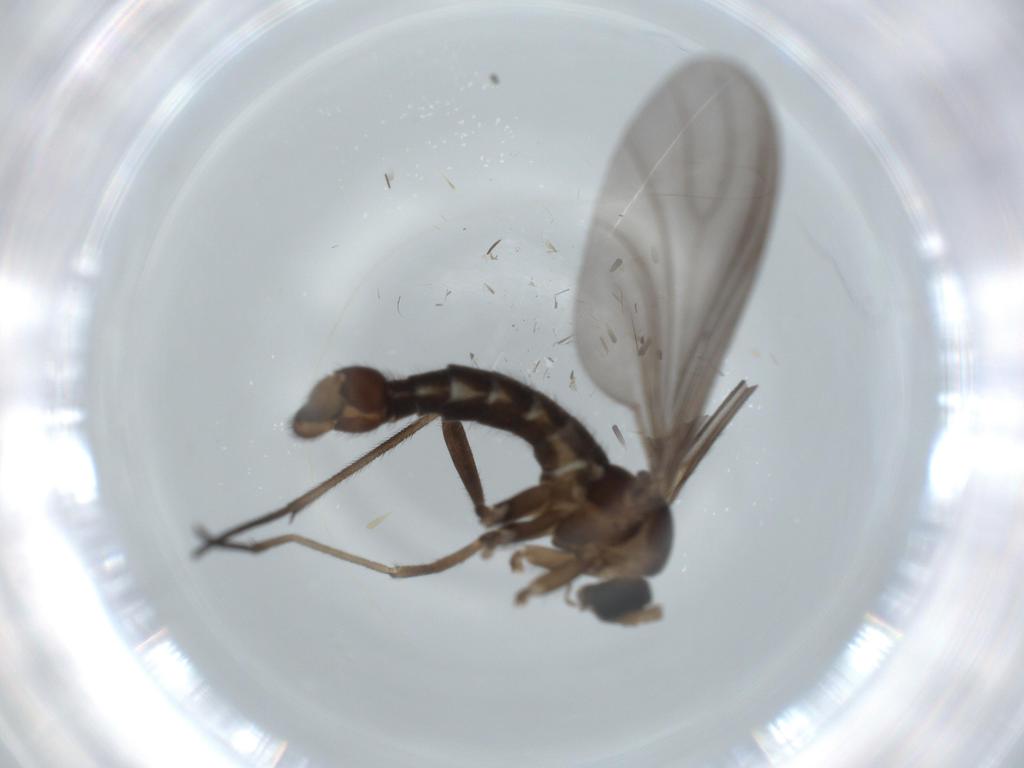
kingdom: Animalia
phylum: Arthropoda
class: Insecta
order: Diptera
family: Sciaridae
